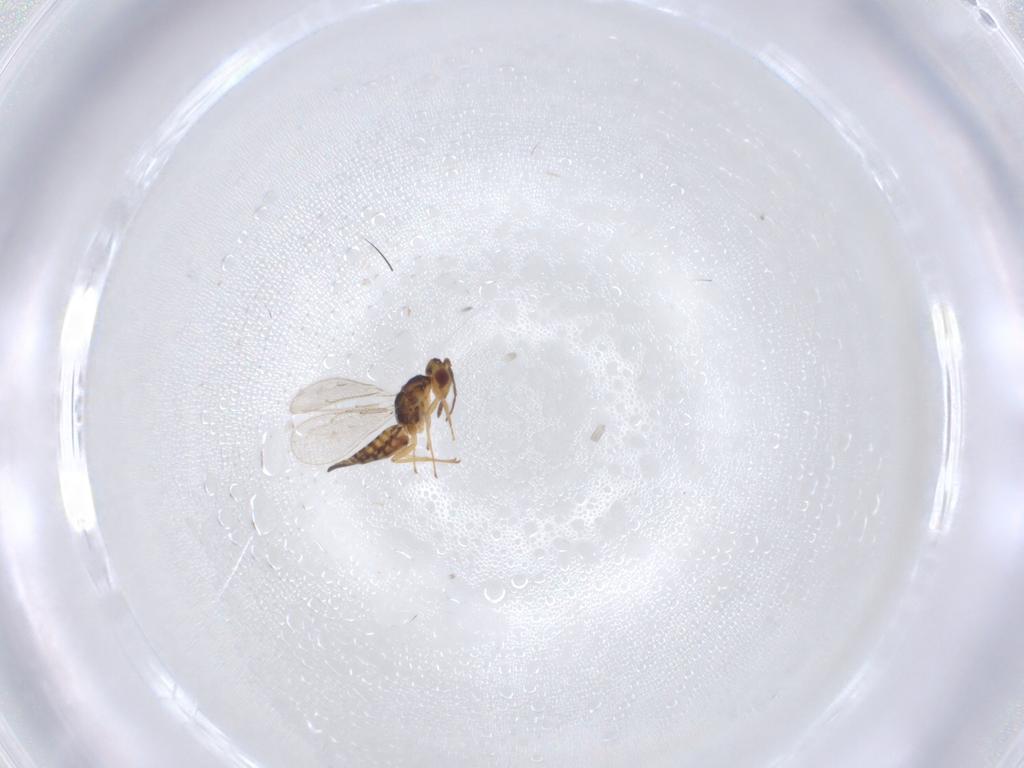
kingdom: Animalia
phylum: Arthropoda
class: Insecta
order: Hymenoptera
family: Eulophidae
